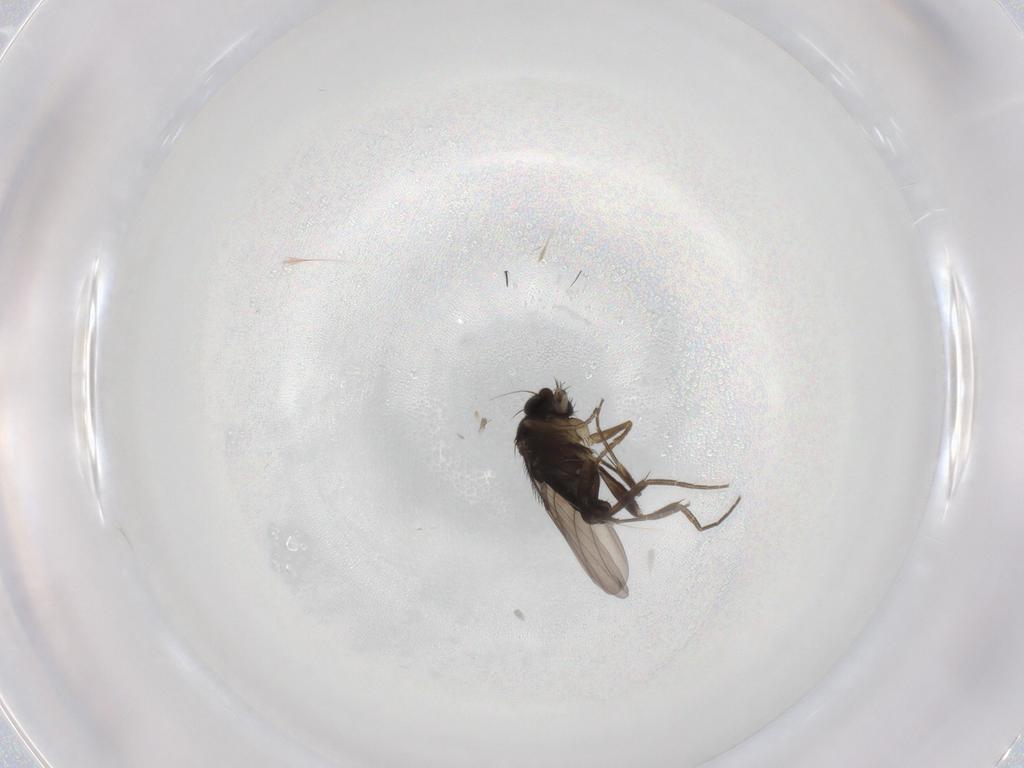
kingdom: Animalia
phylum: Arthropoda
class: Insecta
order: Diptera
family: Phoridae
